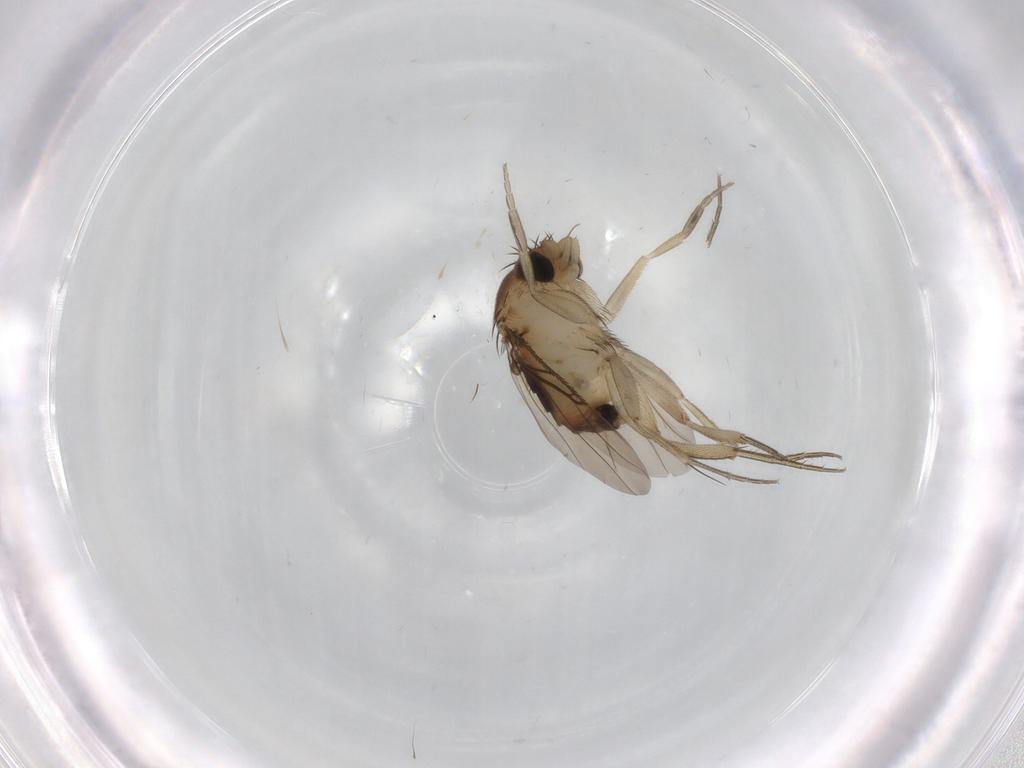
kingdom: Animalia
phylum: Arthropoda
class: Insecta
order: Diptera
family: Phoridae
